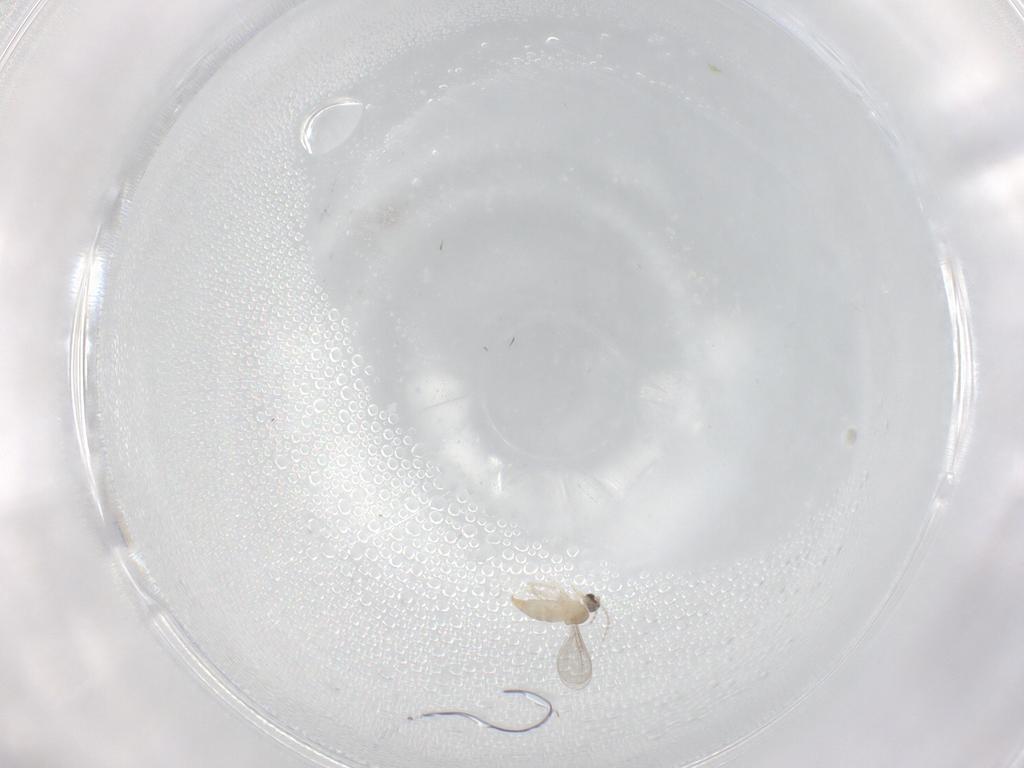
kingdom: Animalia
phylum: Arthropoda
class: Insecta
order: Diptera
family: Cecidomyiidae
